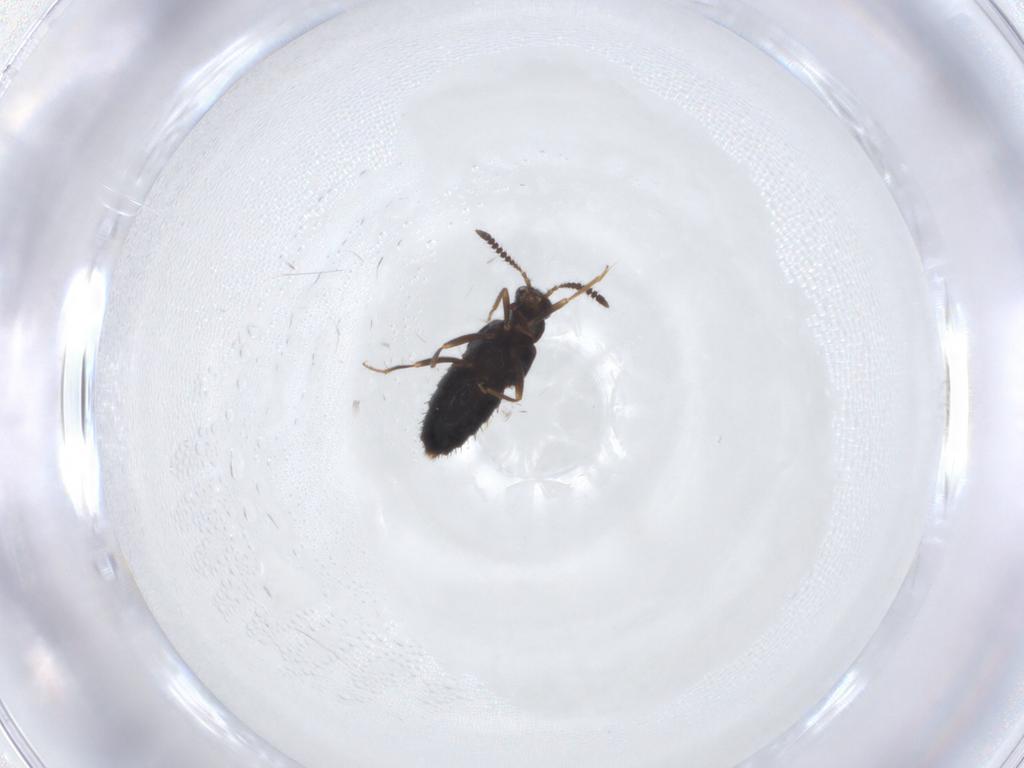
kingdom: Animalia
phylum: Arthropoda
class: Insecta
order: Coleoptera
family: Staphylinidae
